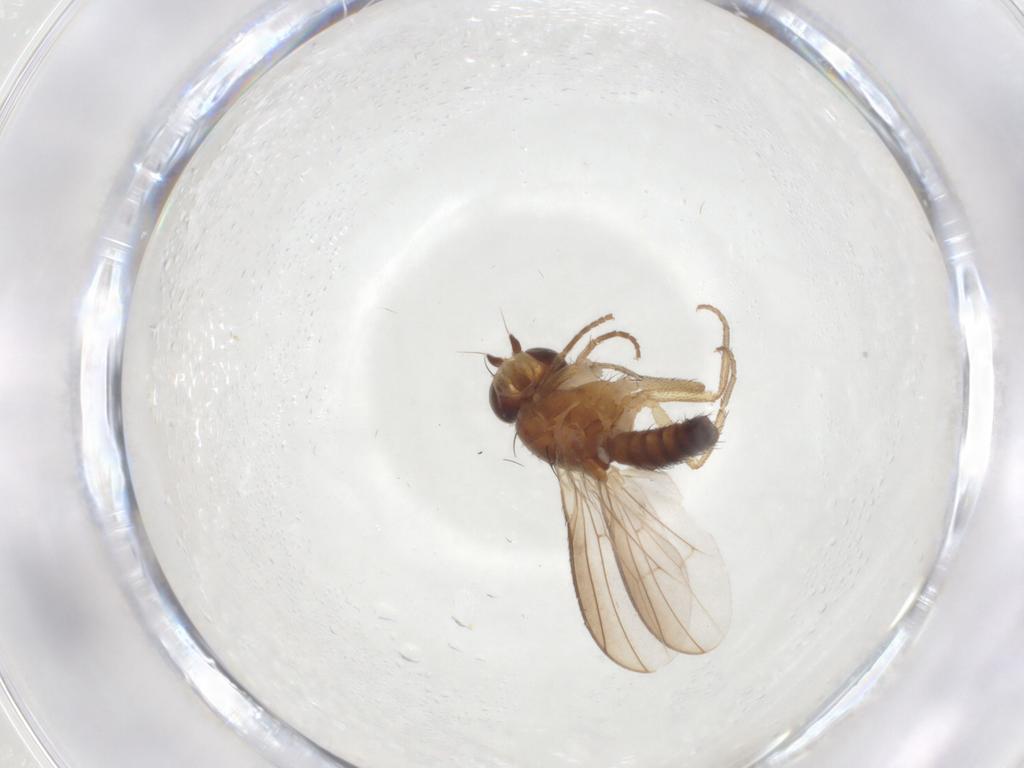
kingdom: Animalia
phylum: Arthropoda
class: Insecta
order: Diptera
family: Heleomyzidae
